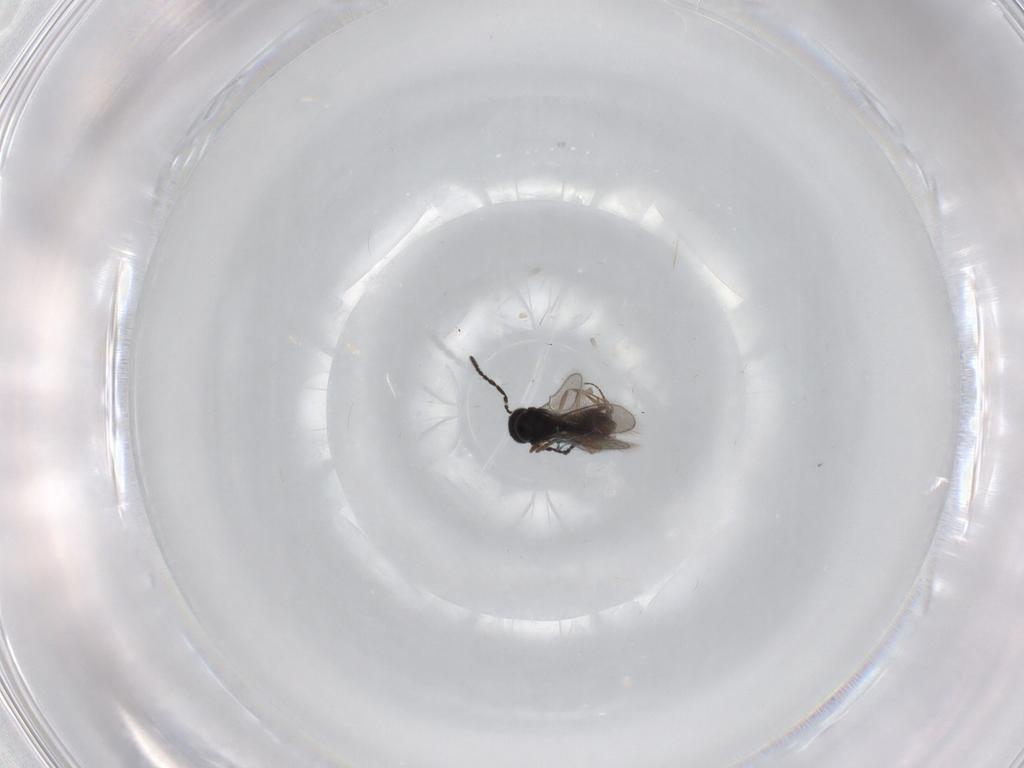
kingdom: Animalia
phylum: Arthropoda
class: Insecta
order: Hymenoptera
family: Scelionidae
